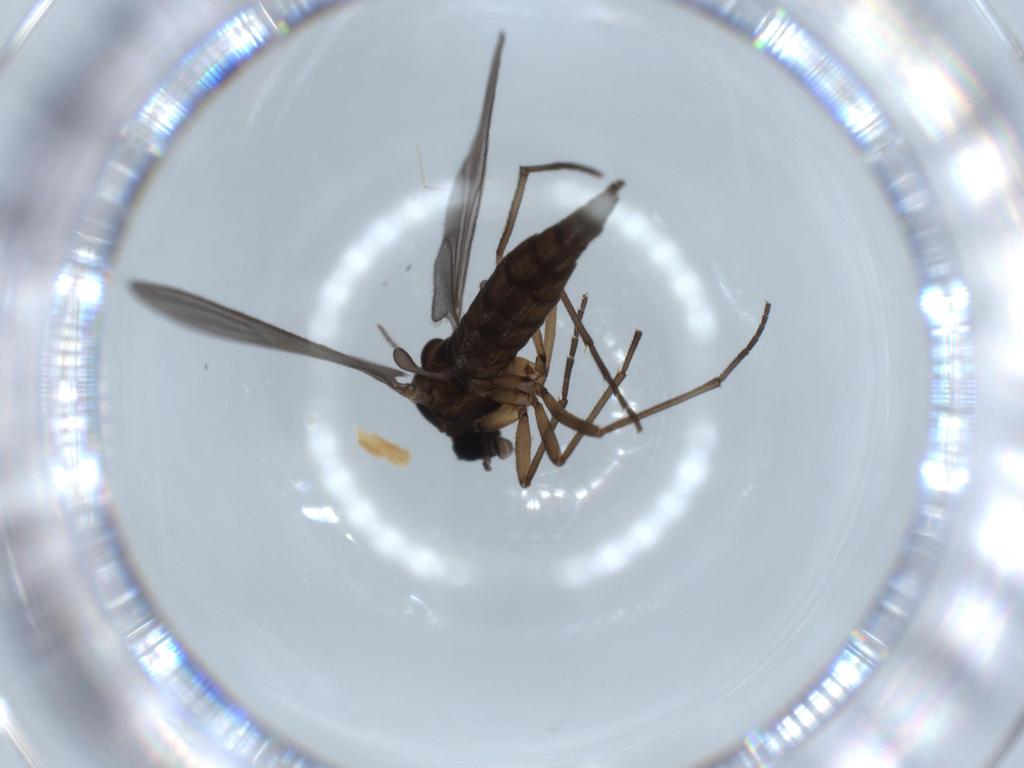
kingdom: Animalia
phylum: Arthropoda
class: Insecta
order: Diptera
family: Sciaridae
